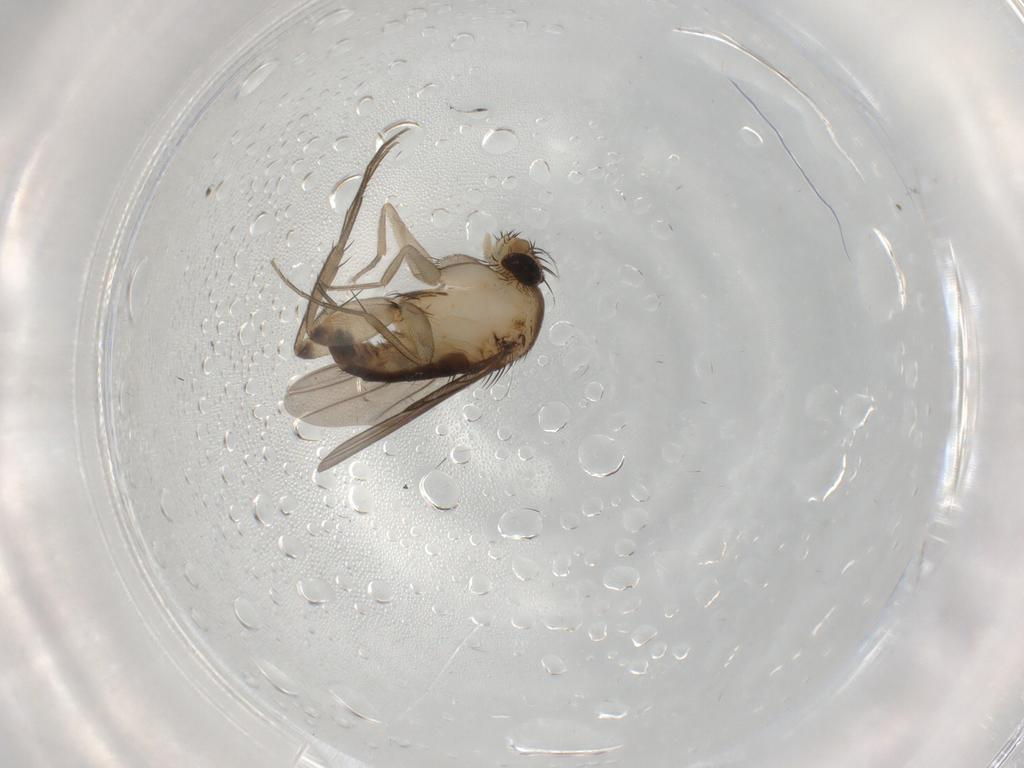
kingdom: Animalia
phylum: Arthropoda
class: Insecta
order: Diptera
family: Phoridae
